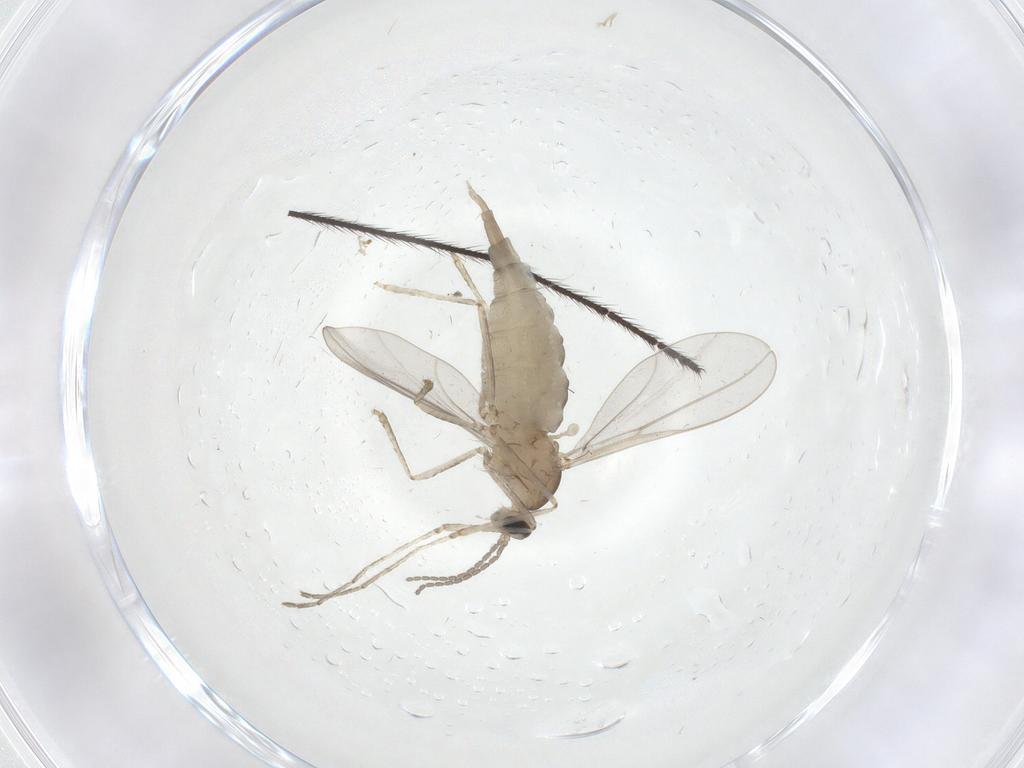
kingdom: Animalia
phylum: Arthropoda
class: Insecta
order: Diptera
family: Cecidomyiidae
